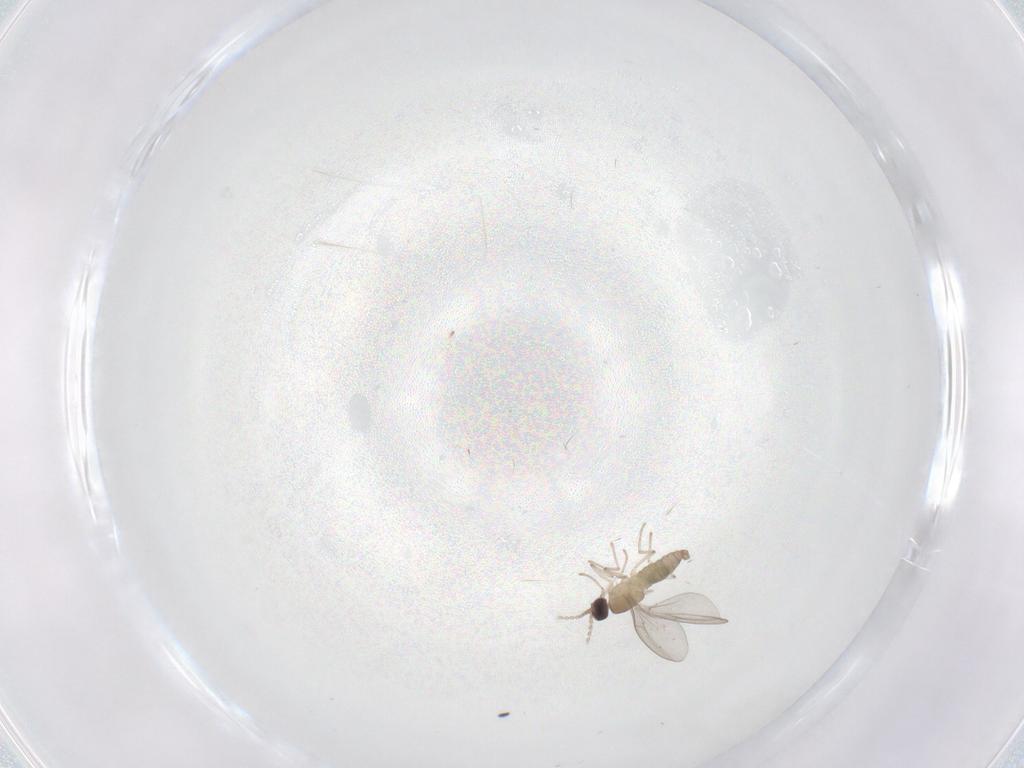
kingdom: Animalia
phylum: Arthropoda
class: Insecta
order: Diptera
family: Cecidomyiidae
